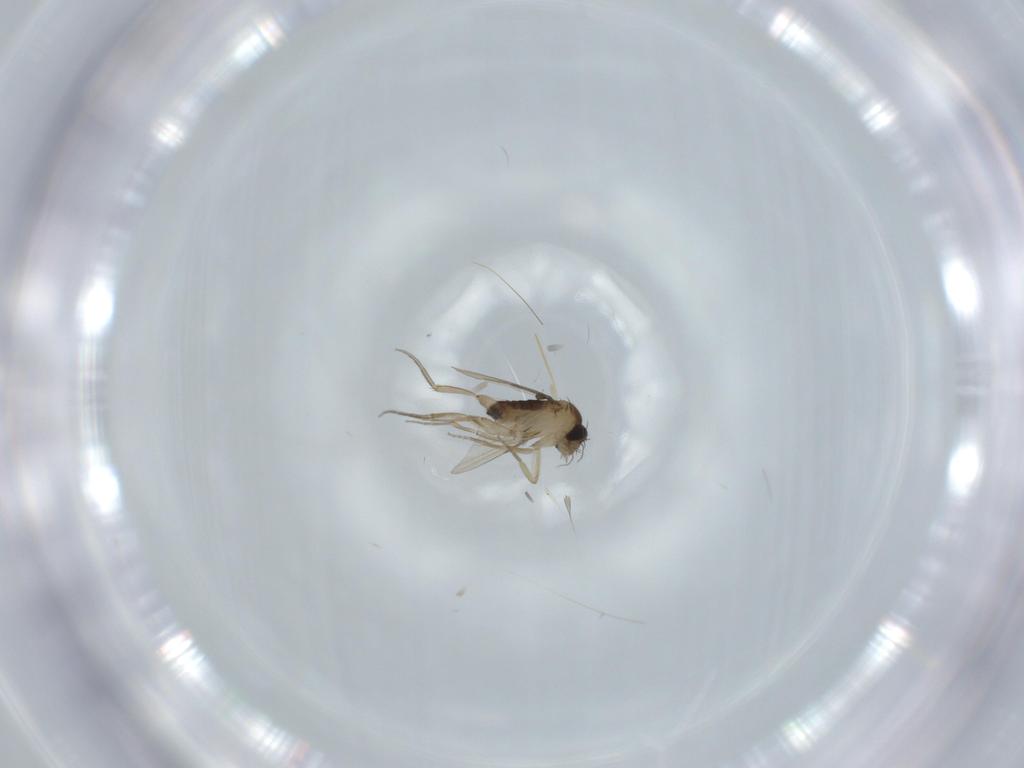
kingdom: Animalia
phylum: Arthropoda
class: Insecta
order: Diptera
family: Phoridae
